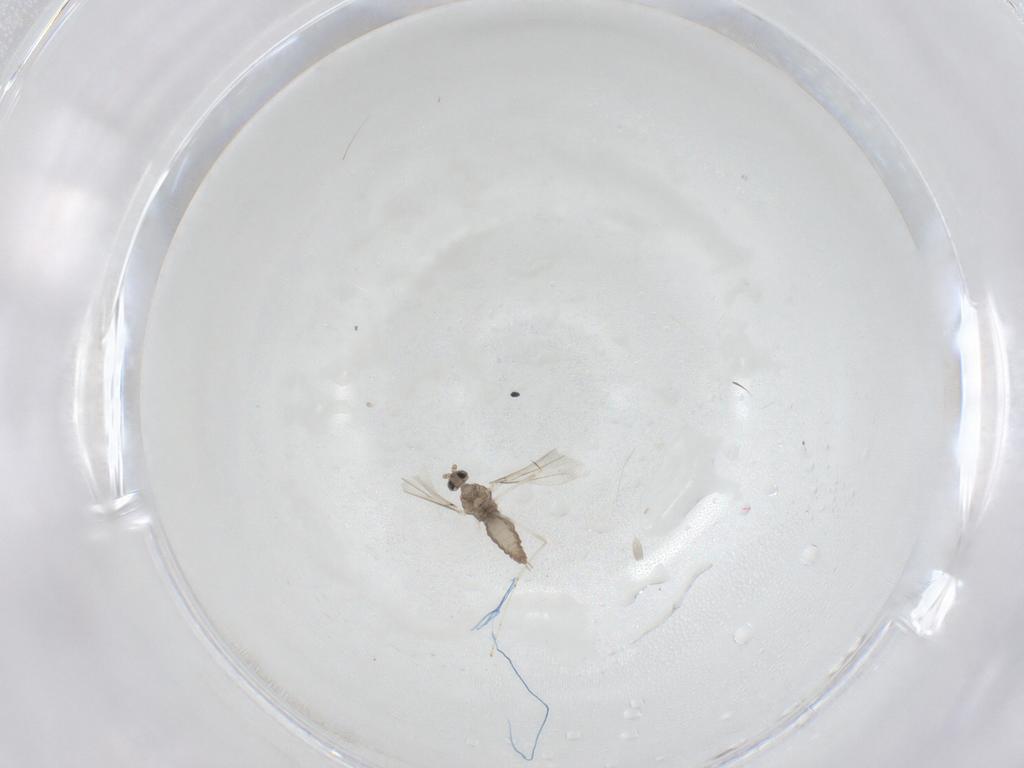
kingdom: Animalia
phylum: Arthropoda
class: Insecta
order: Diptera
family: Cecidomyiidae
